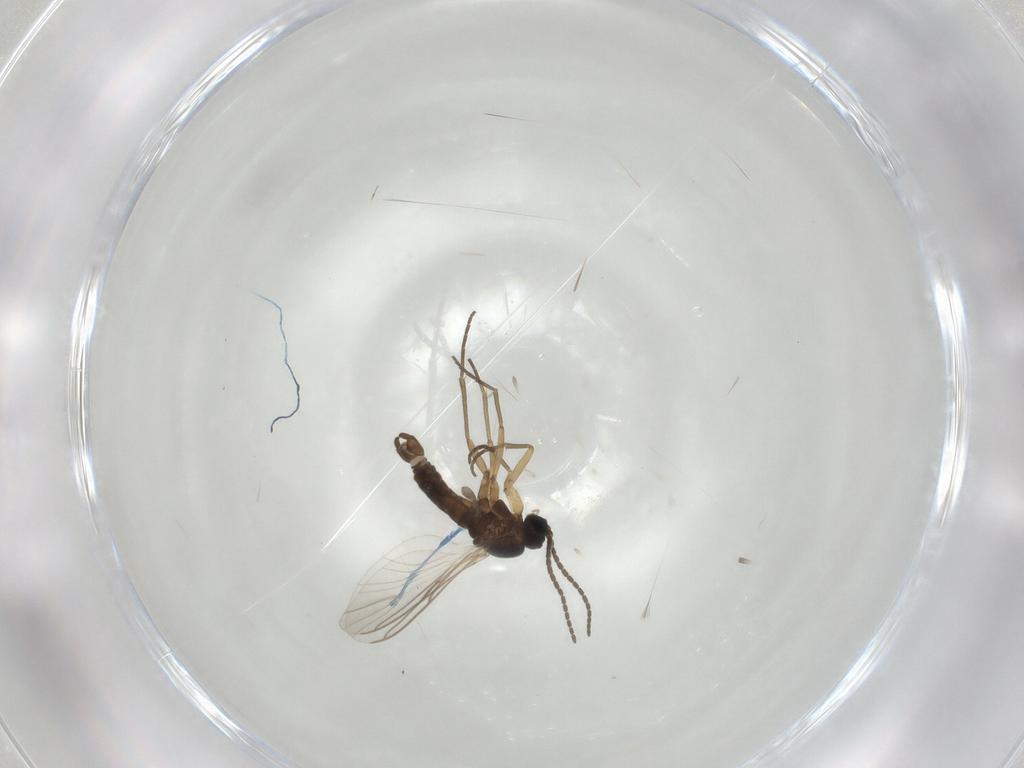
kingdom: Animalia
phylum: Arthropoda
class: Insecta
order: Diptera
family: Sciaridae
